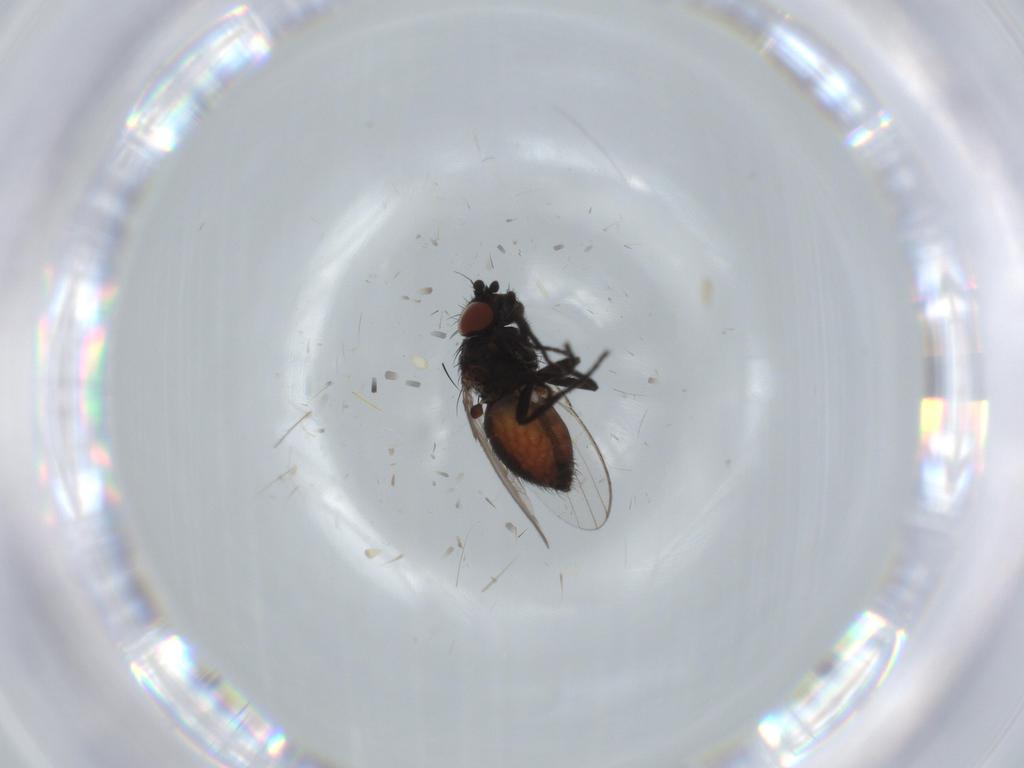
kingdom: Animalia
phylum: Arthropoda
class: Insecta
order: Diptera
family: Milichiidae
